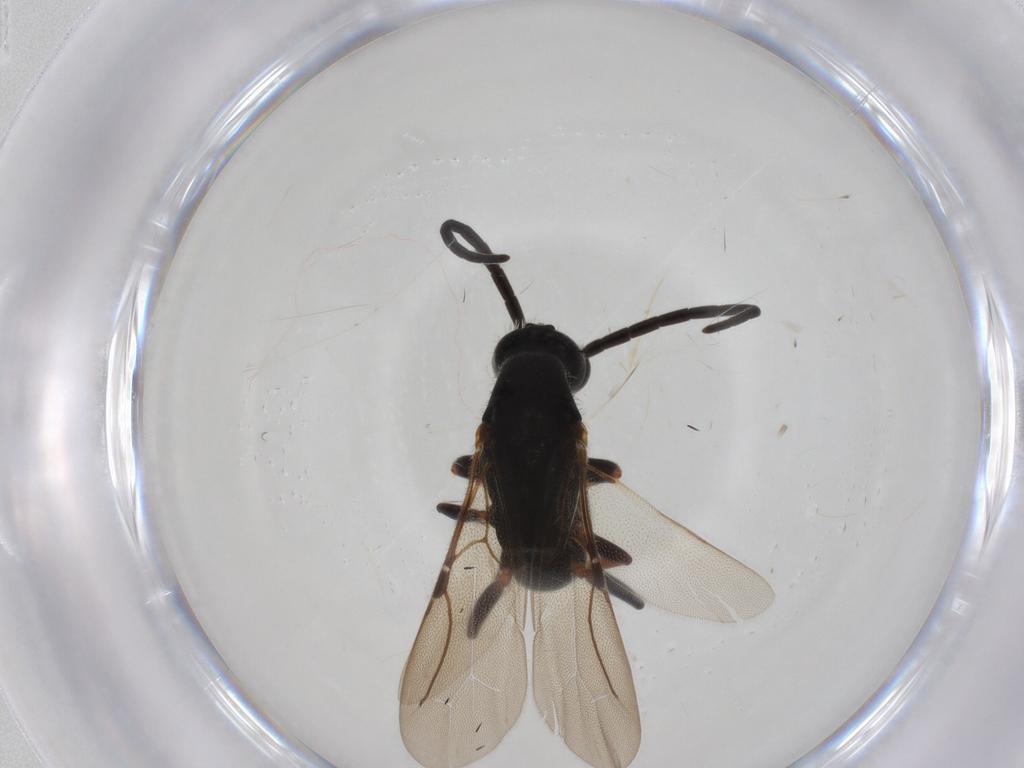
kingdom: Animalia
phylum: Arthropoda
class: Insecta
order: Hymenoptera
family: Bethylidae
